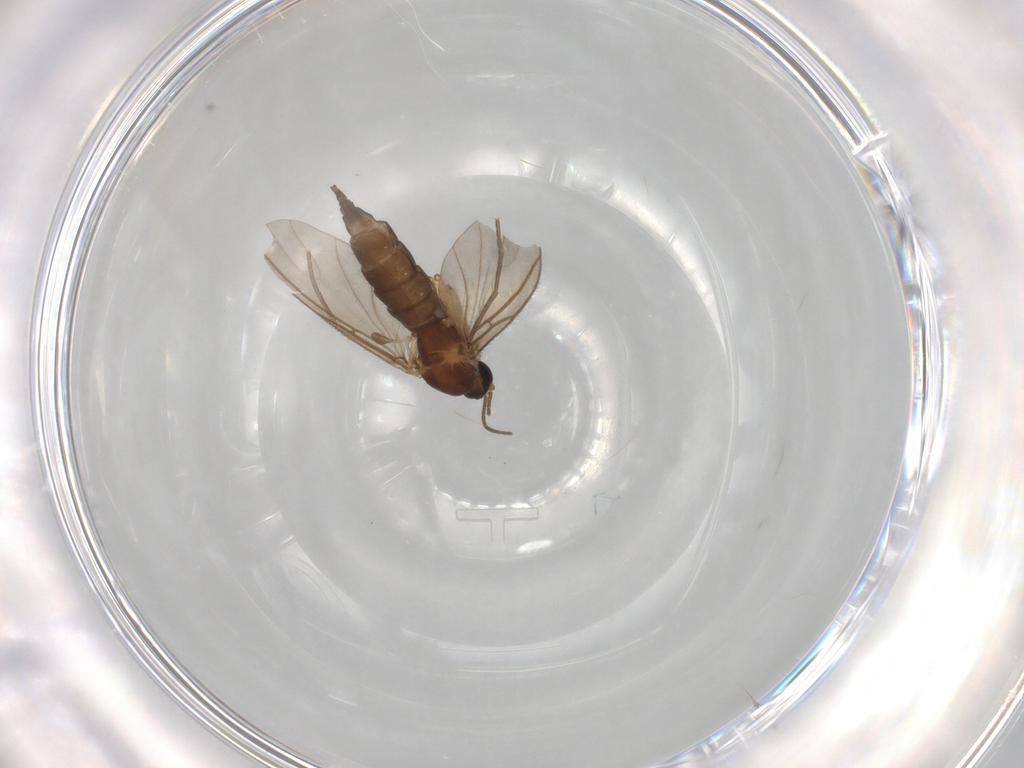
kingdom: Animalia
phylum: Arthropoda
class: Insecta
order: Diptera
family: Sciaridae
